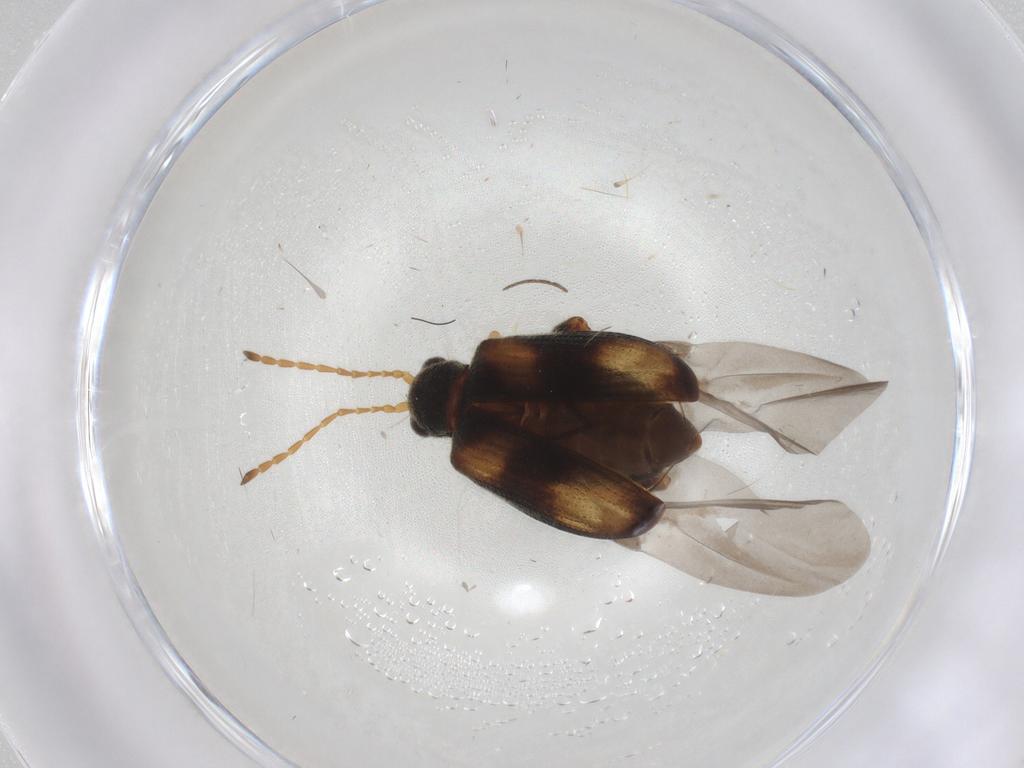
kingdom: Animalia
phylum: Arthropoda
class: Insecta
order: Coleoptera
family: Chrysomelidae
